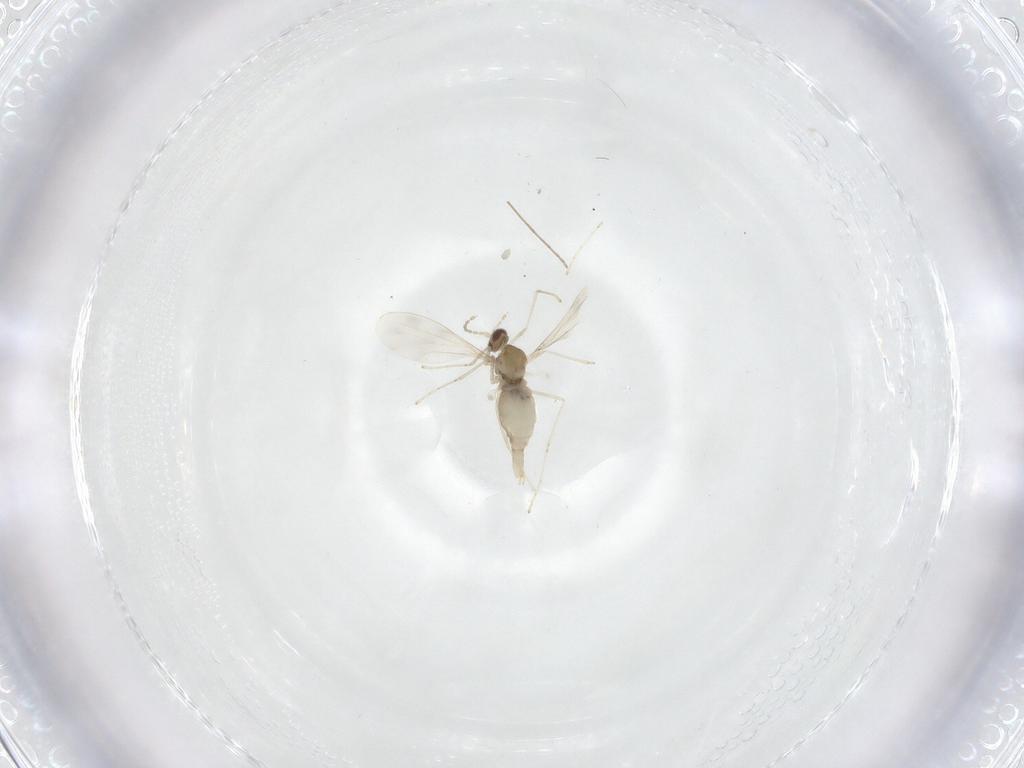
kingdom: Animalia
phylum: Arthropoda
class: Insecta
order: Diptera
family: Cecidomyiidae
